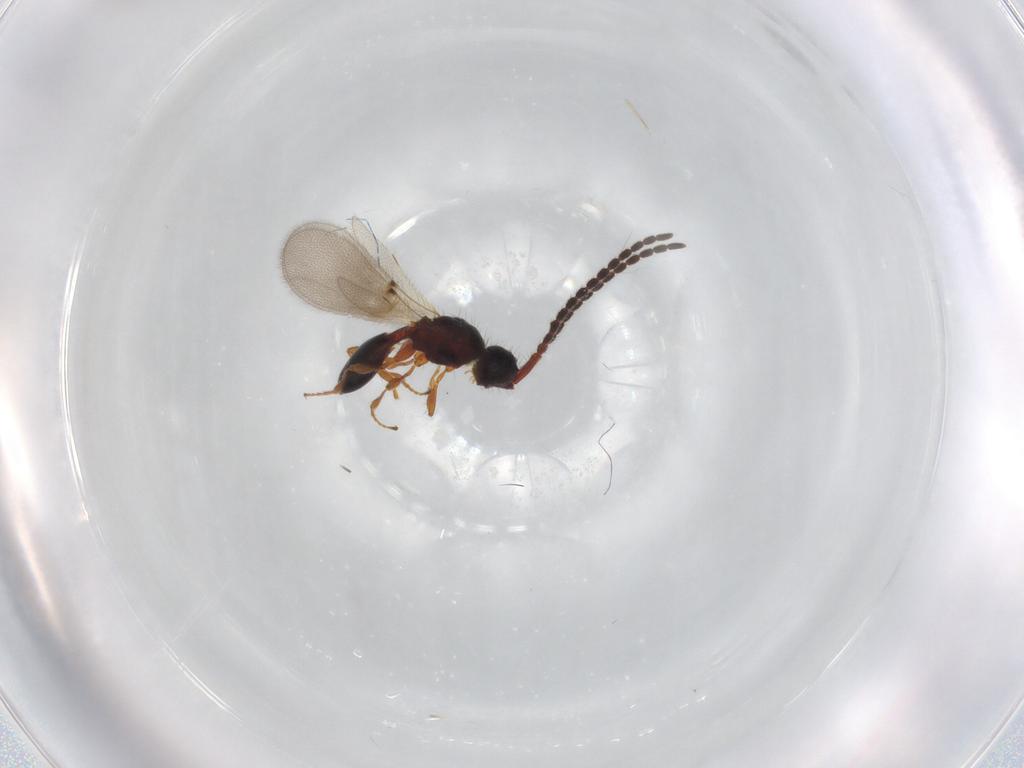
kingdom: Animalia
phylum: Arthropoda
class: Insecta
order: Hymenoptera
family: Diapriidae
